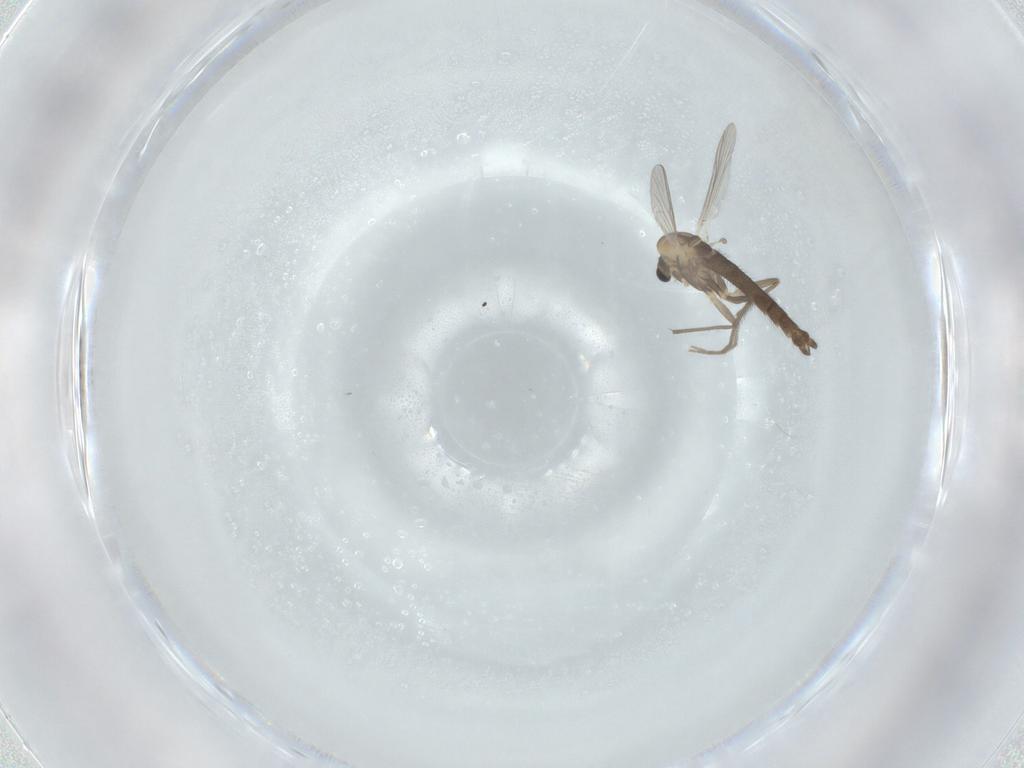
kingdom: Animalia
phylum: Arthropoda
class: Insecta
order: Diptera
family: Chironomidae
